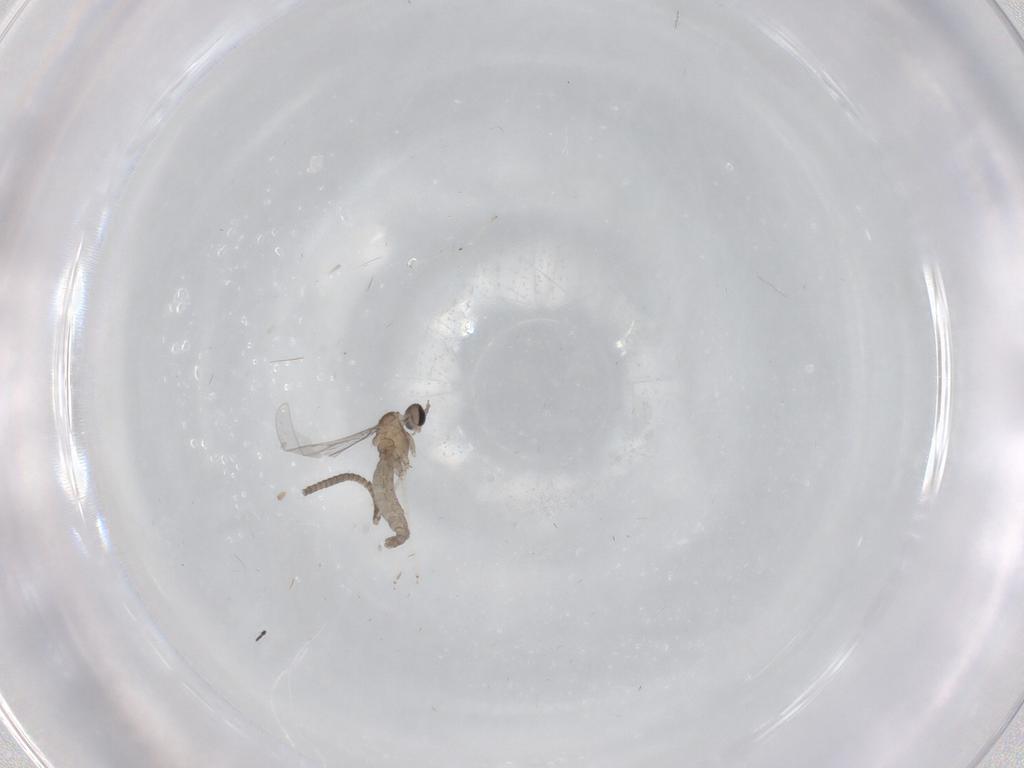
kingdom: Animalia
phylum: Arthropoda
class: Insecta
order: Diptera
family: Cecidomyiidae
